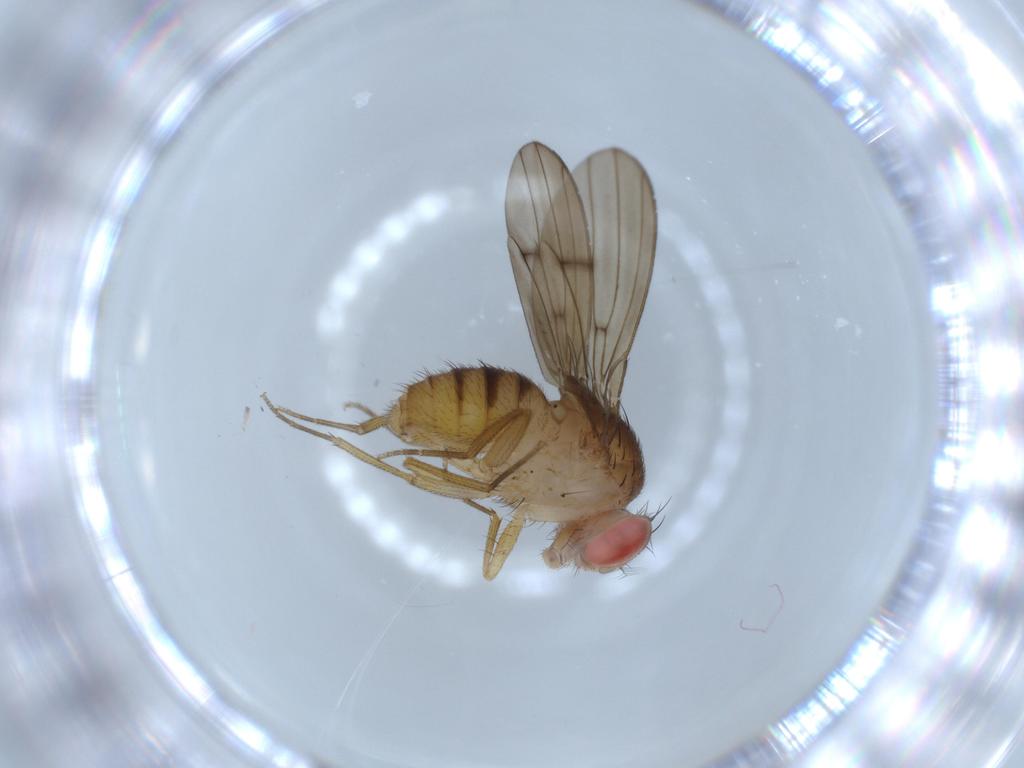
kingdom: Animalia
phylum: Arthropoda
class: Insecta
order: Diptera
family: Drosophilidae
